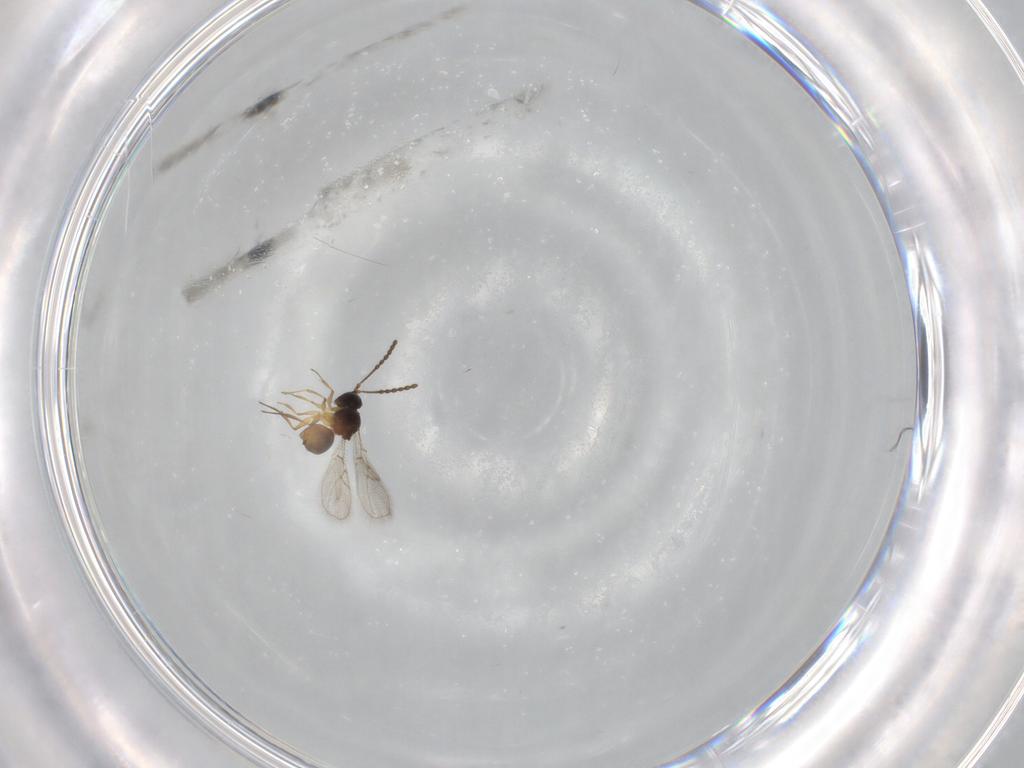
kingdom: Animalia
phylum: Arthropoda
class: Insecta
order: Hymenoptera
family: Figitidae
